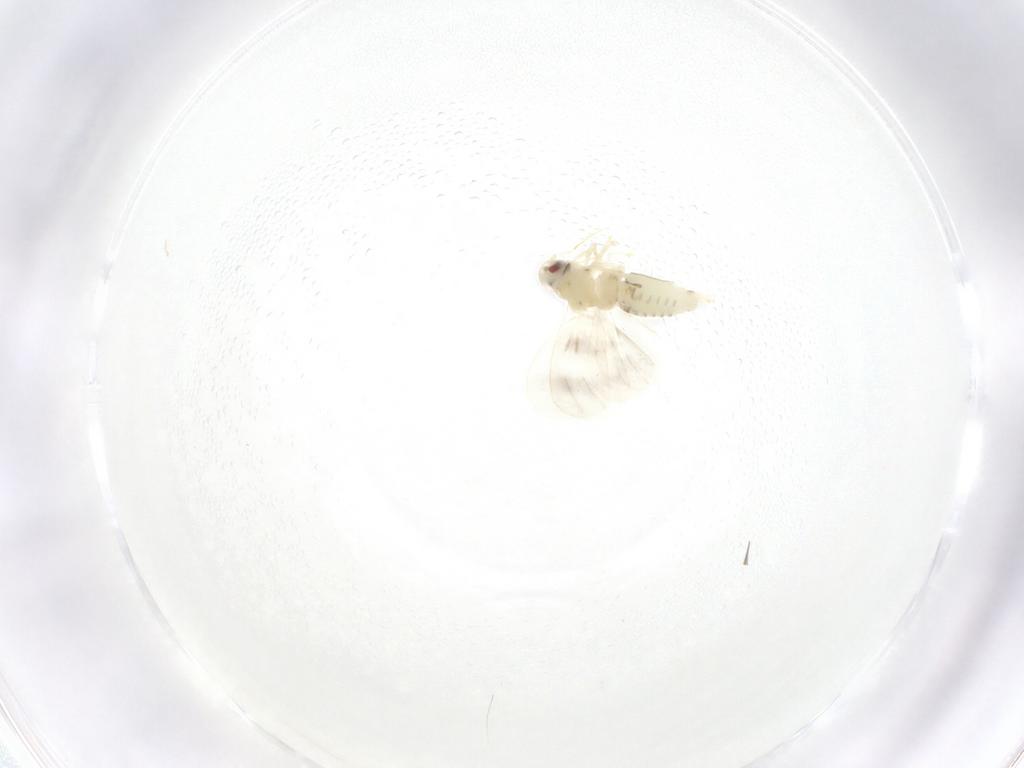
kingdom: Animalia
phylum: Arthropoda
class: Insecta
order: Hemiptera
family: Aleyrodidae
